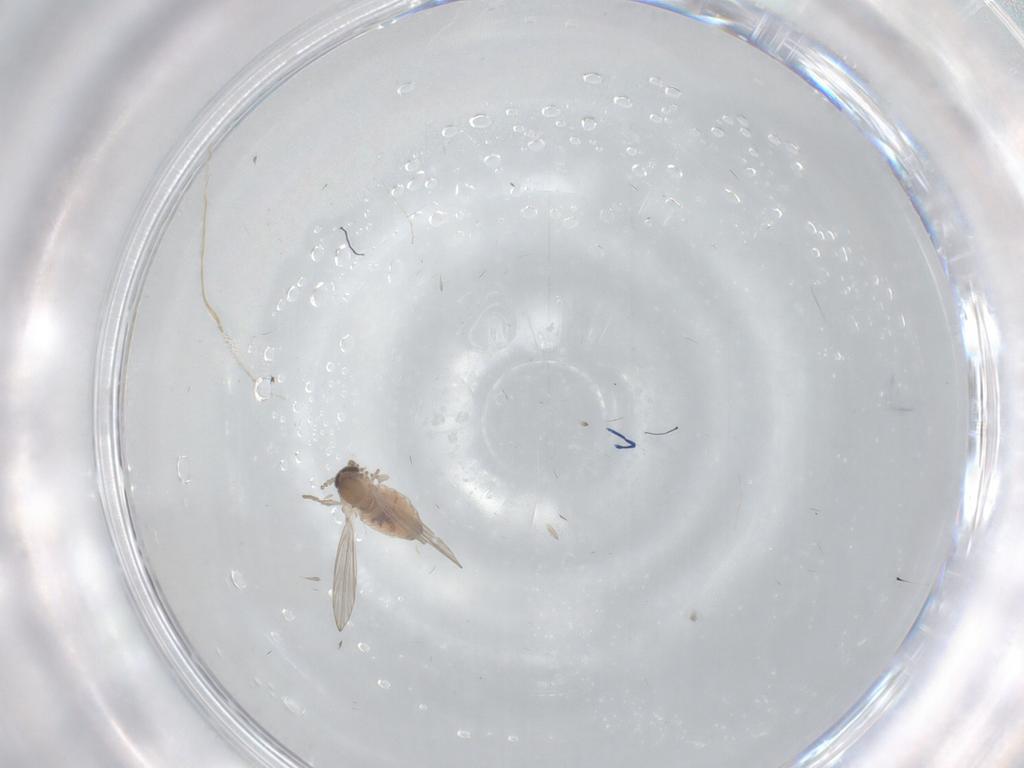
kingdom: Animalia
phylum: Arthropoda
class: Insecta
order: Diptera
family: Psychodidae
